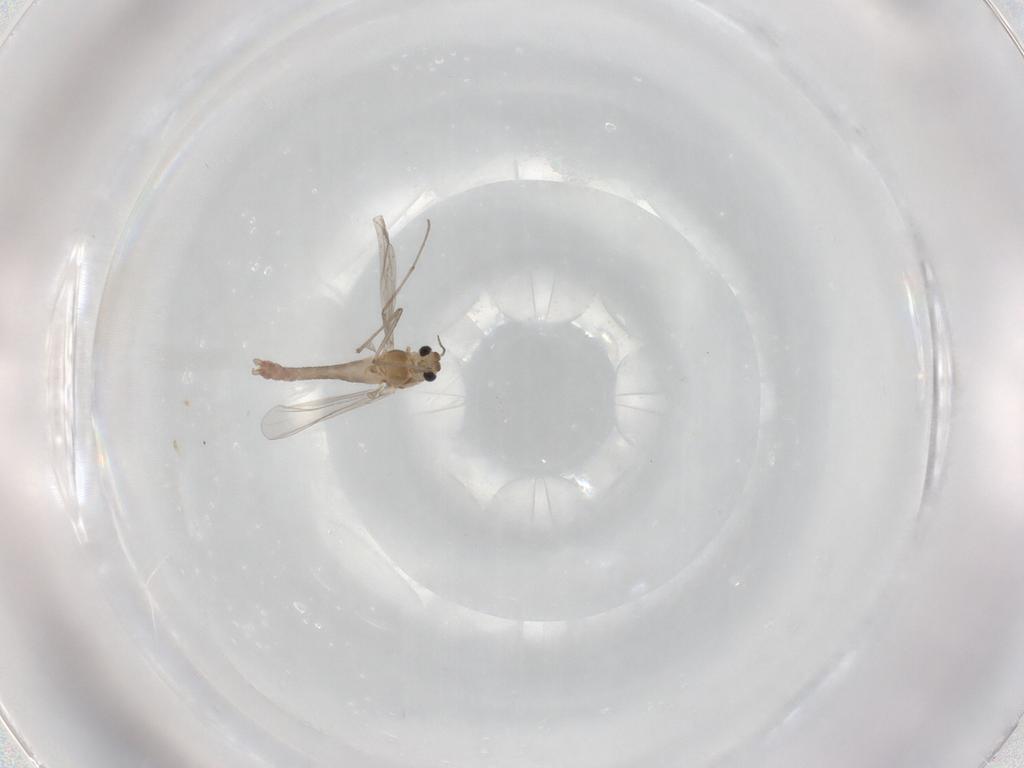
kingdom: Animalia
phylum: Arthropoda
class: Insecta
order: Diptera
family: Chironomidae
